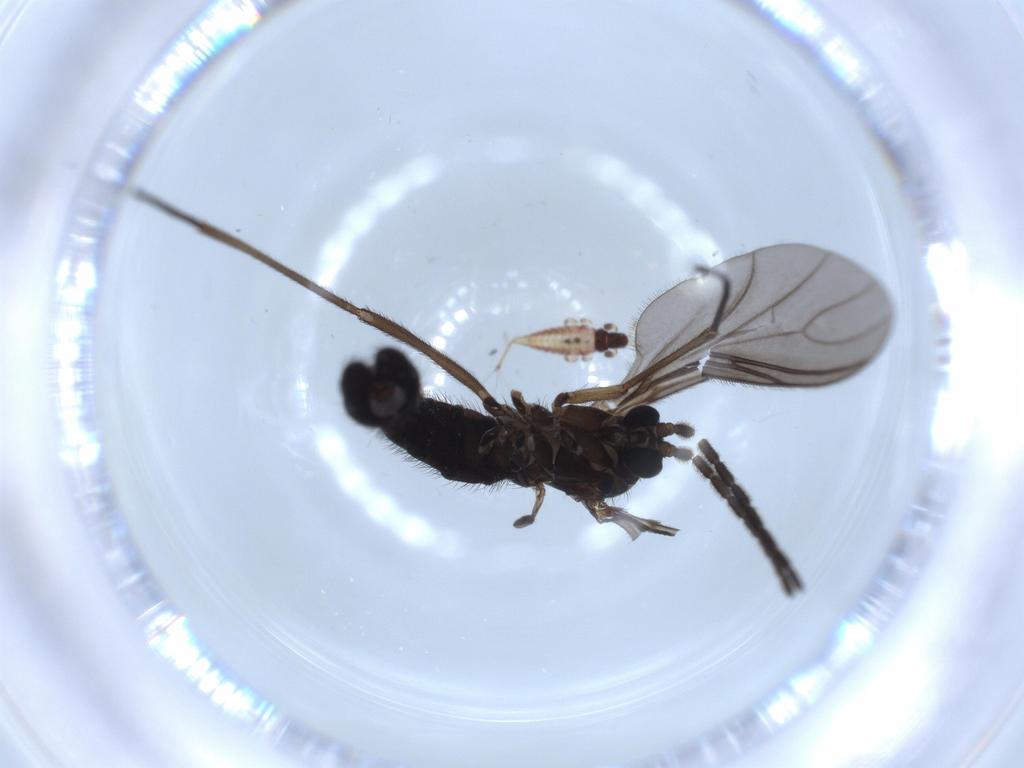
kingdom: Animalia
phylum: Arthropoda
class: Insecta
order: Diptera
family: Sciaridae
